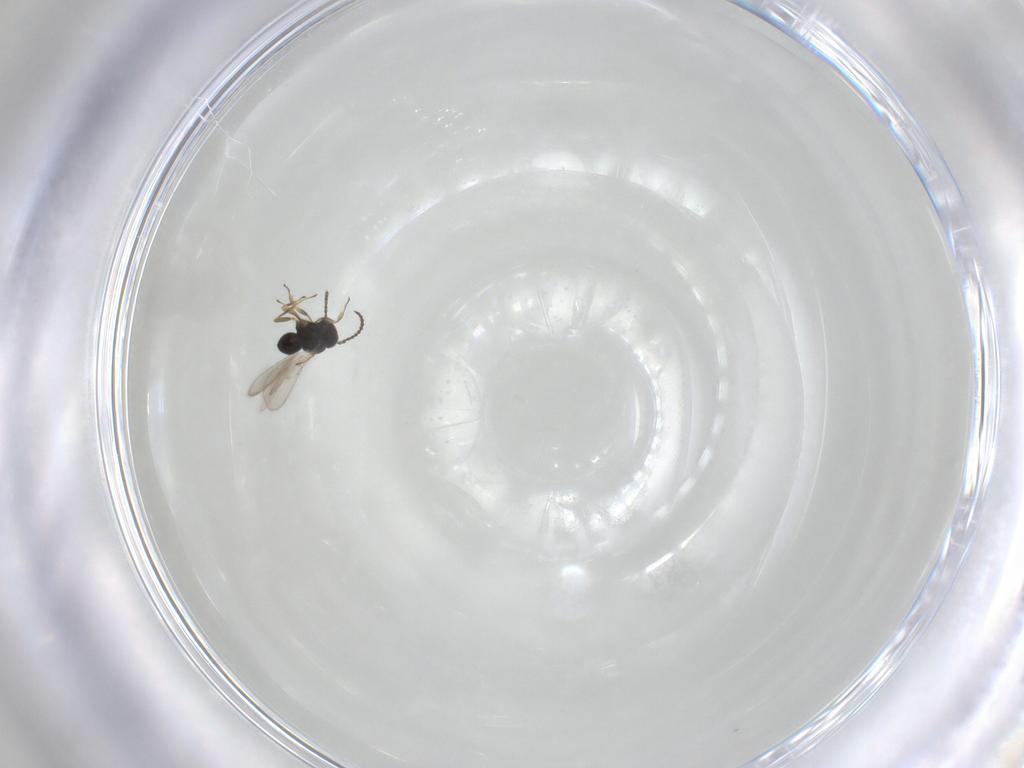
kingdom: Animalia
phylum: Arthropoda
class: Insecta
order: Hymenoptera
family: Scelionidae
